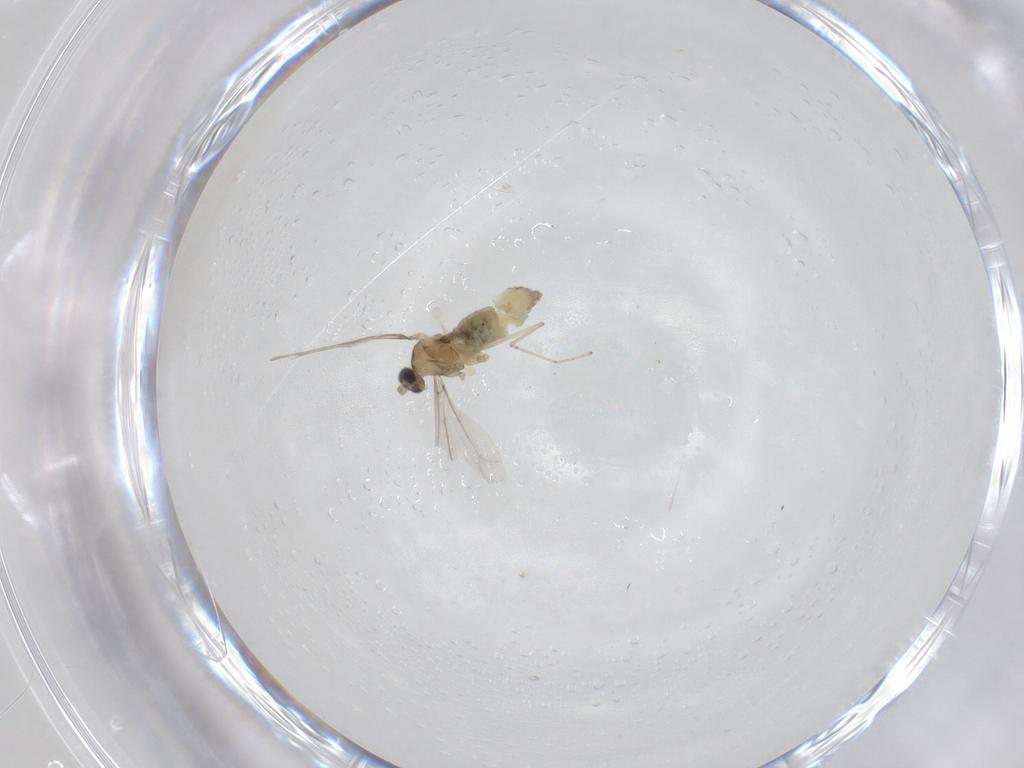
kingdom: Animalia
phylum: Arthropoda
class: Insecta
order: Diptera
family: Cecidomyiidae
